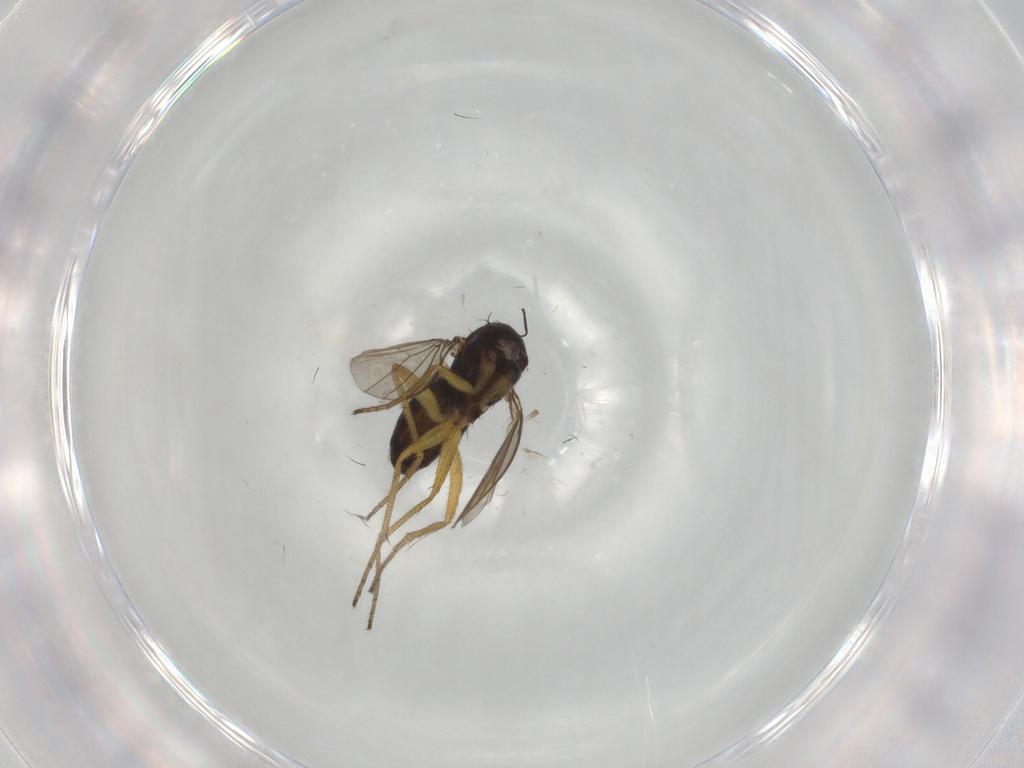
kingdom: Animalia
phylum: Arthropoda
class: Insecta
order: Diptera
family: Dolichopodidae
